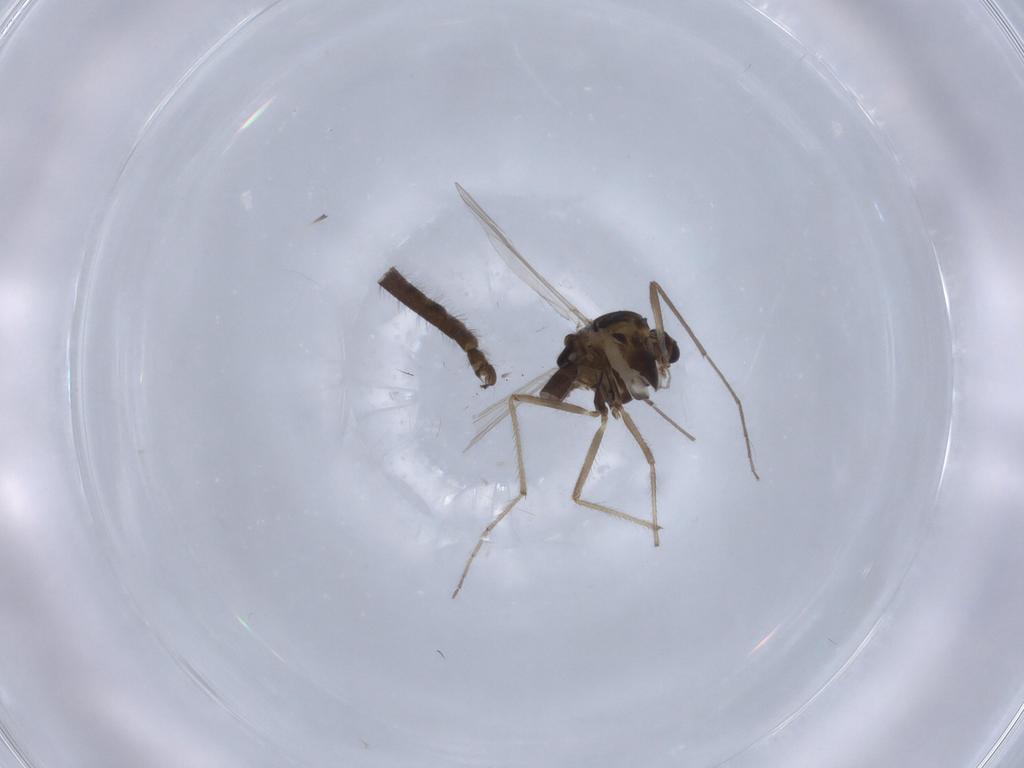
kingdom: Animalia
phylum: Arthropoda
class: Insecta
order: Diptera
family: Chironomidae
